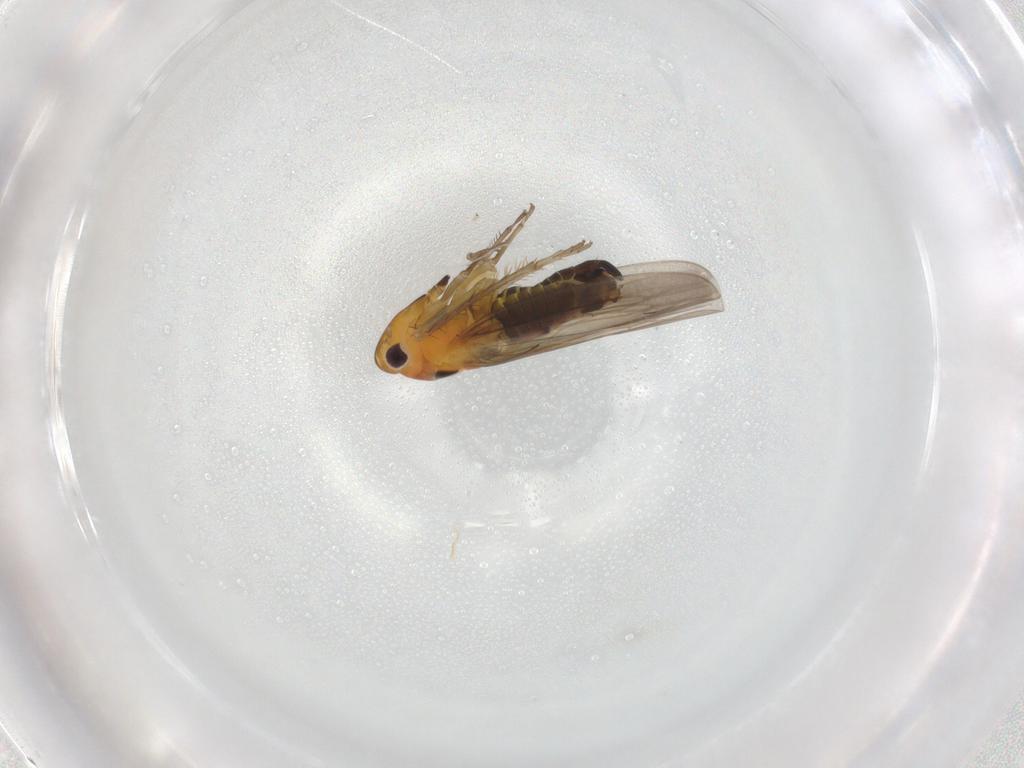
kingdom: Animalia
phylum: Arthropoda
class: Insecta
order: Hemiptera
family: Cicadellidae
